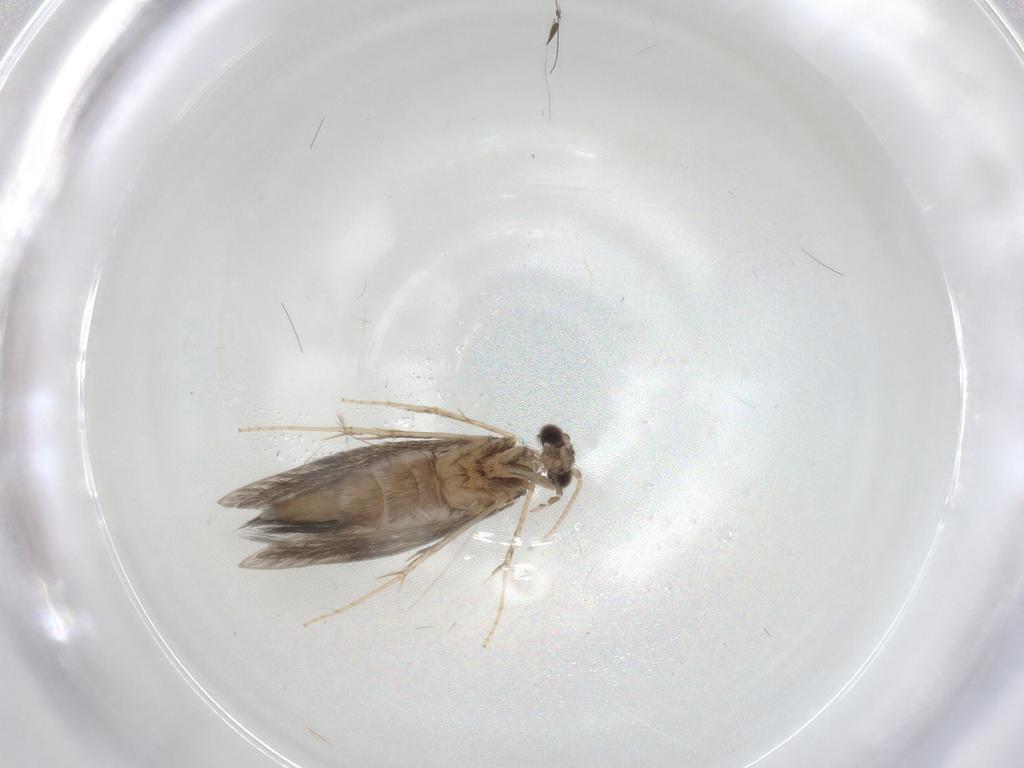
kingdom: Animalia
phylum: Arthropoda
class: Insecta
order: Trichoptera
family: Hydroptilidae
